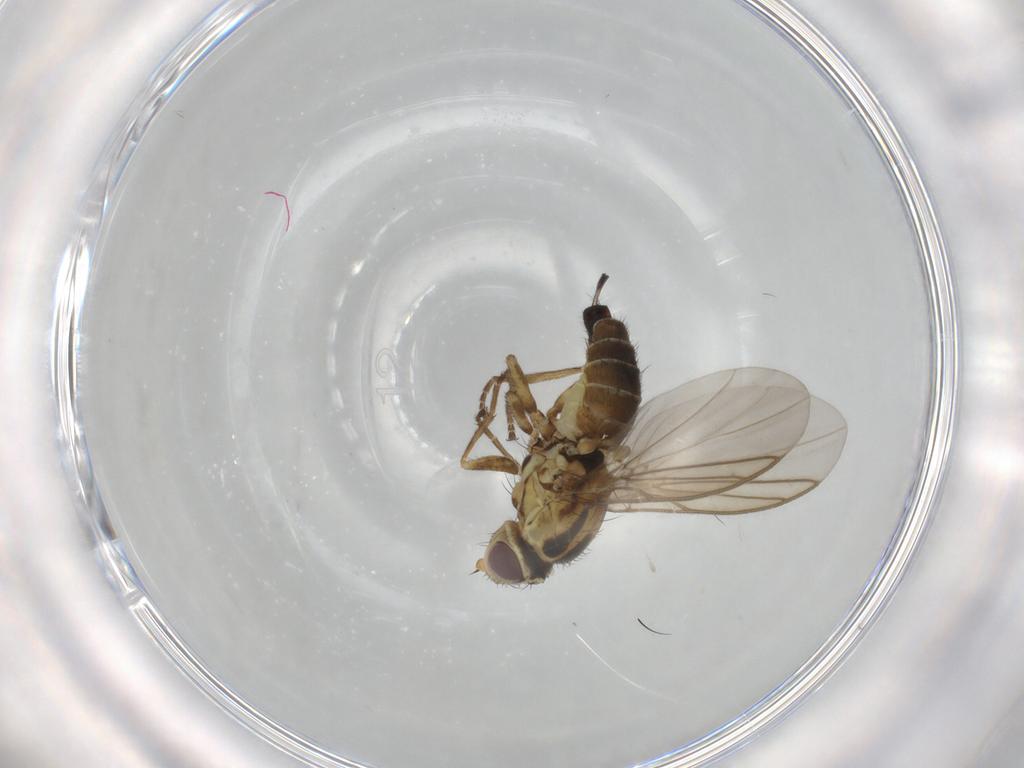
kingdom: Animalia
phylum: Arthropoda
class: Insecta
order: Diptera
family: Agromyzidae
